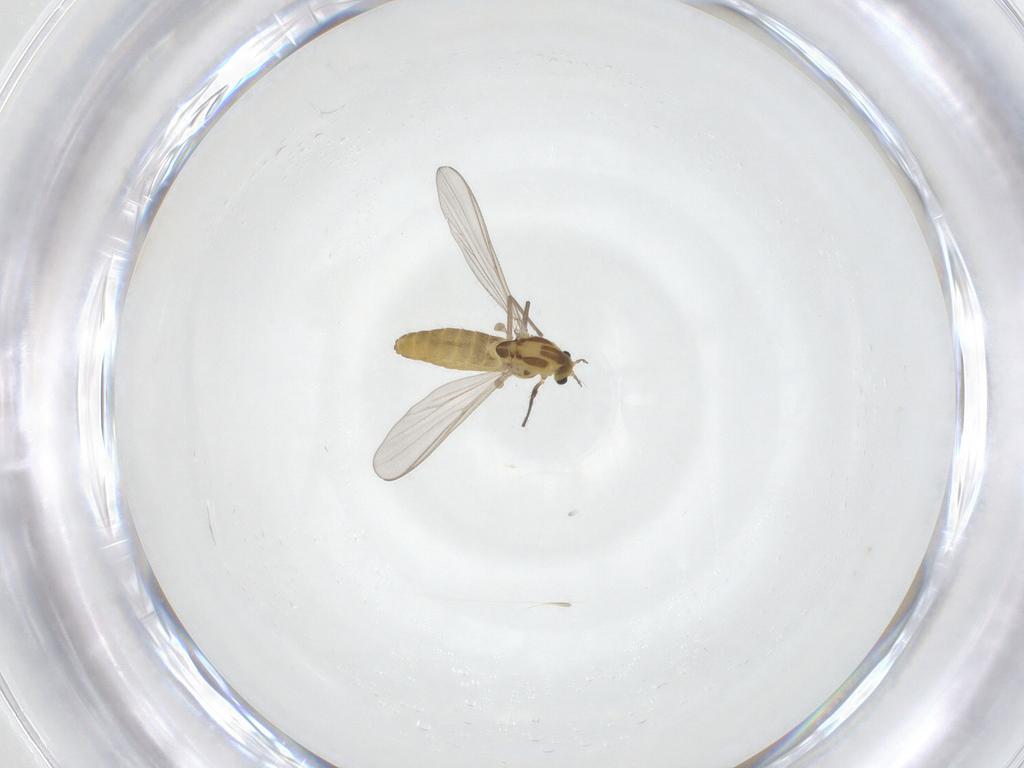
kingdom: Animalia
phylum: Arthropoda
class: Insecta
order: Diptera
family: Chironomidae
